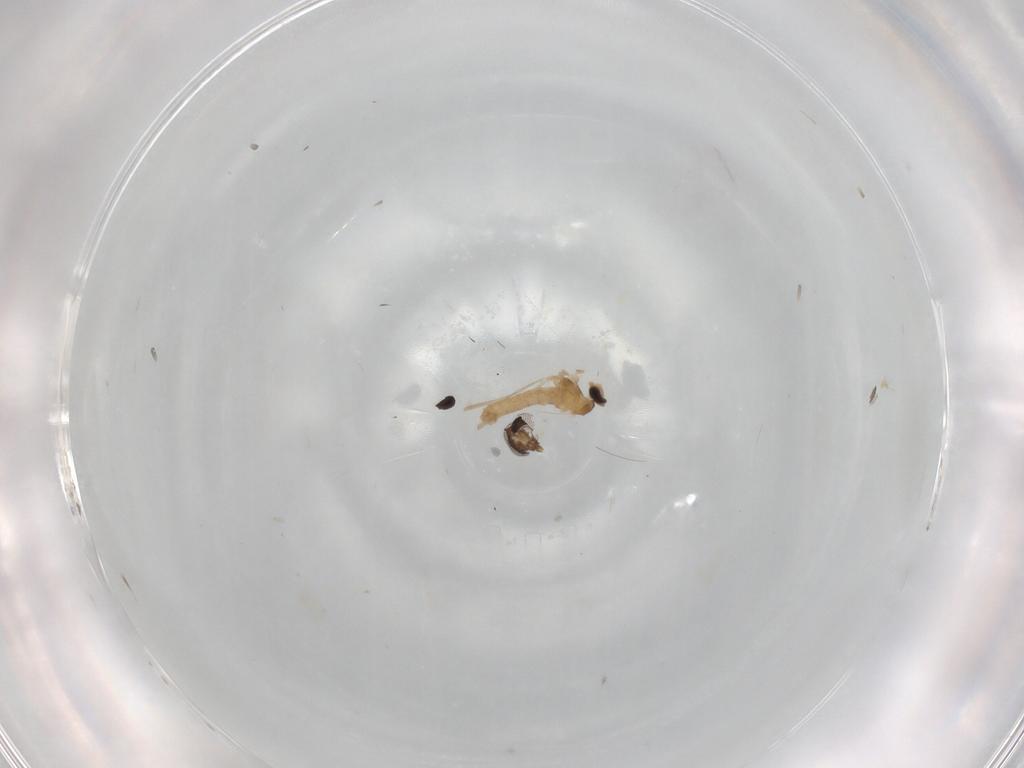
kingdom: Animalia
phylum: Arthropoda
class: Insecta
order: Diptera
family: Cecidomyiidae
